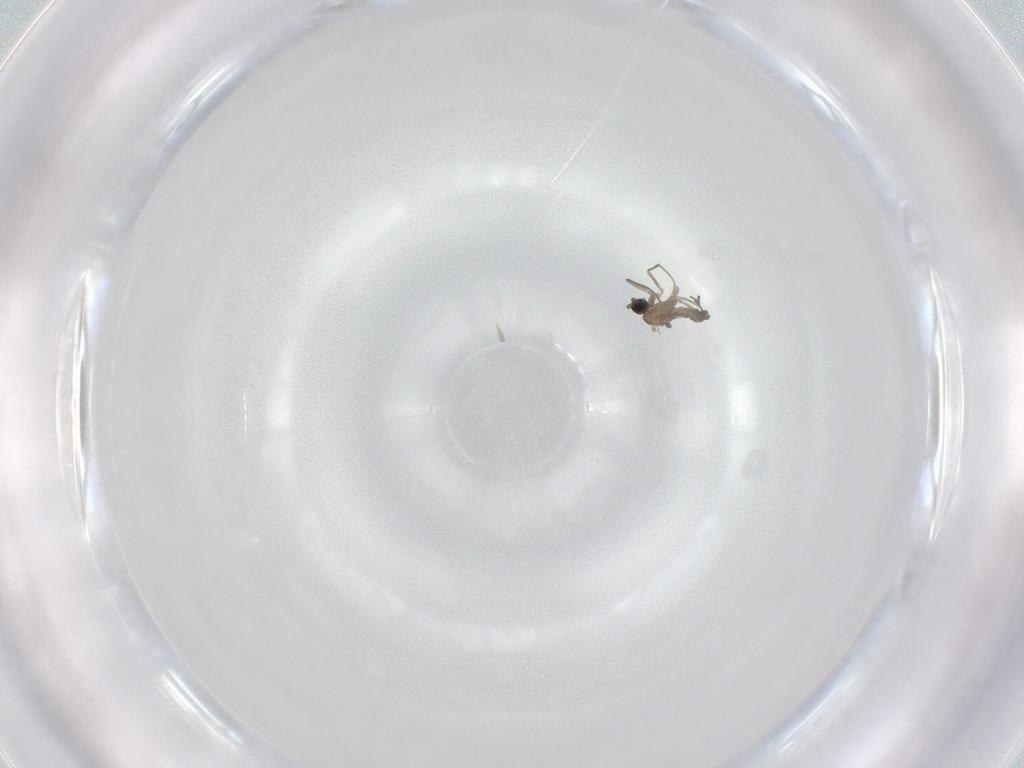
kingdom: Animalia
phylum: Arthropoda
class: Insecta
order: Diptera
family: Sciaridae
